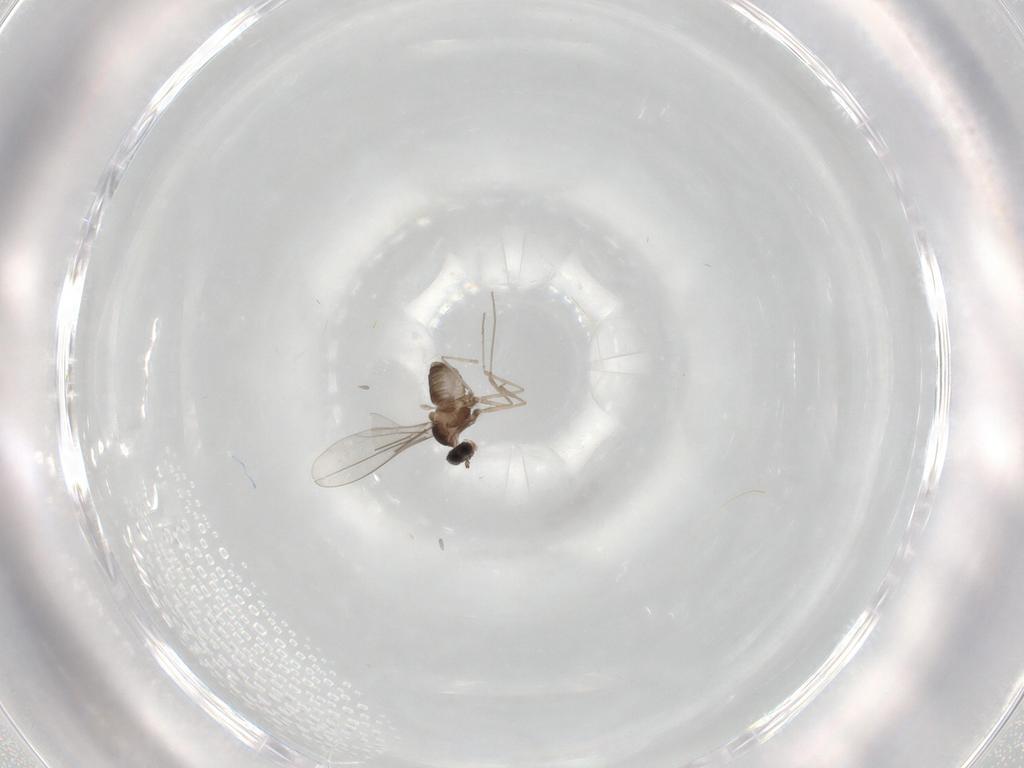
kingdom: Animalia
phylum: Arthropoda
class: Insecta
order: Diptera
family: Cecidomyiidae
